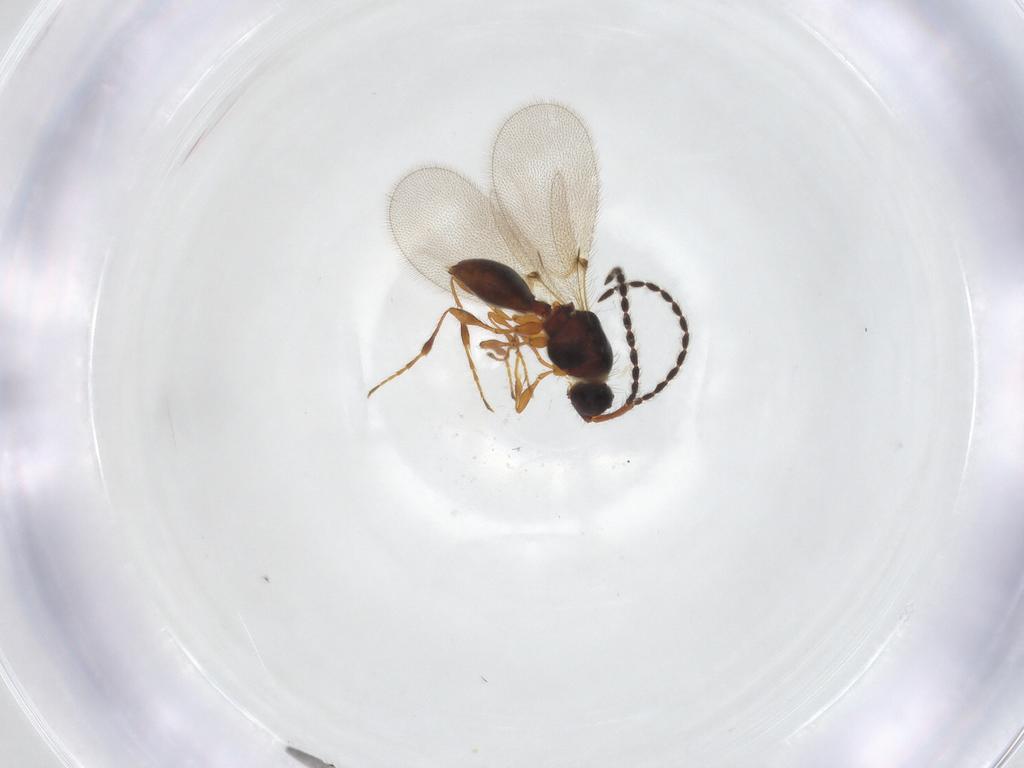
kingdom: Animalia
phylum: Arthropoda
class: Insecta
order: Hymenoptera
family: Diapriidae
